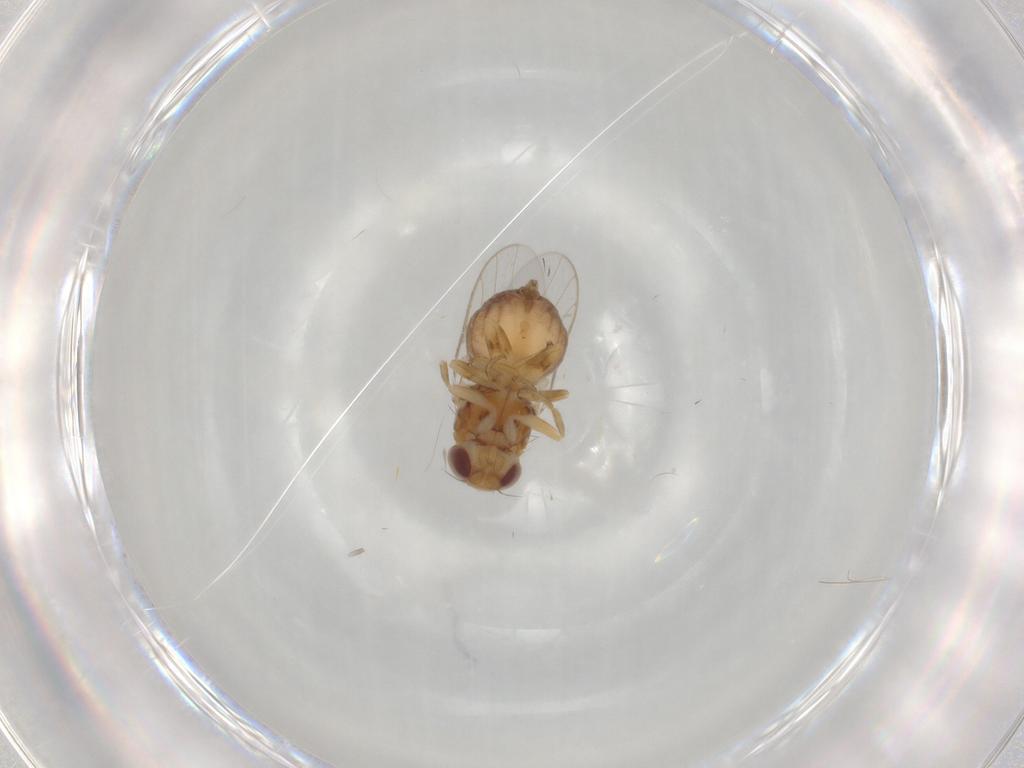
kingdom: Animalia
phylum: Arthropoda
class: Insecta
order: Diptera
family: Chloropidae
